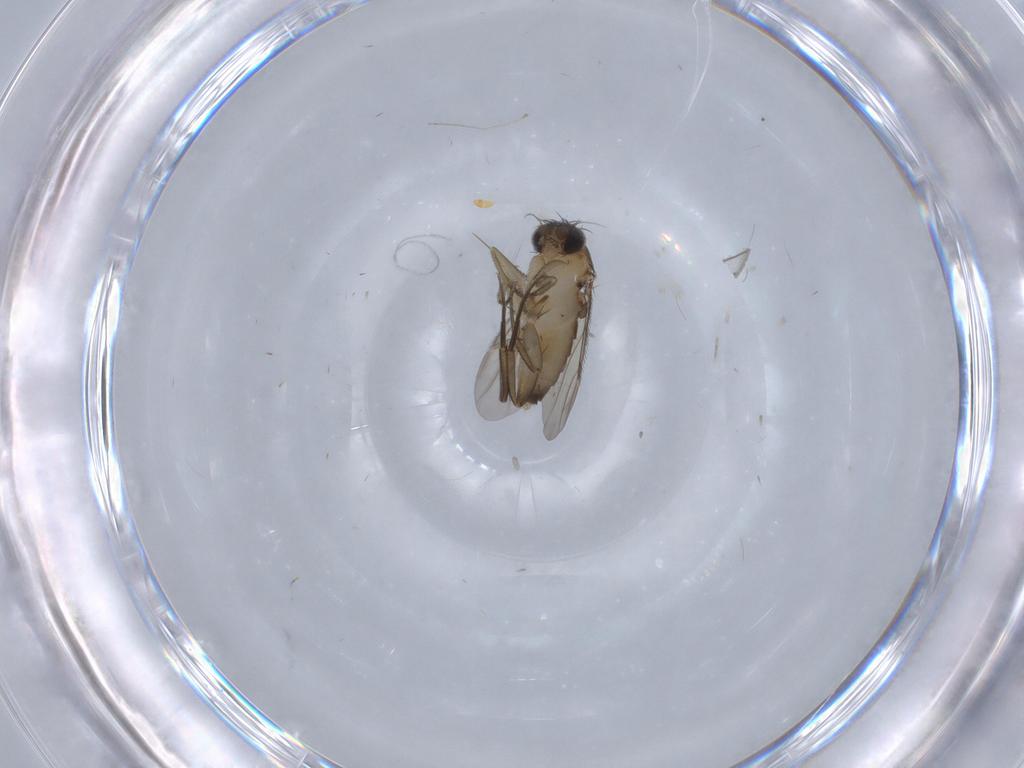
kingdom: Animalia
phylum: Arthropoda
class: Insecta
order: Diptera
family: Phoridae
